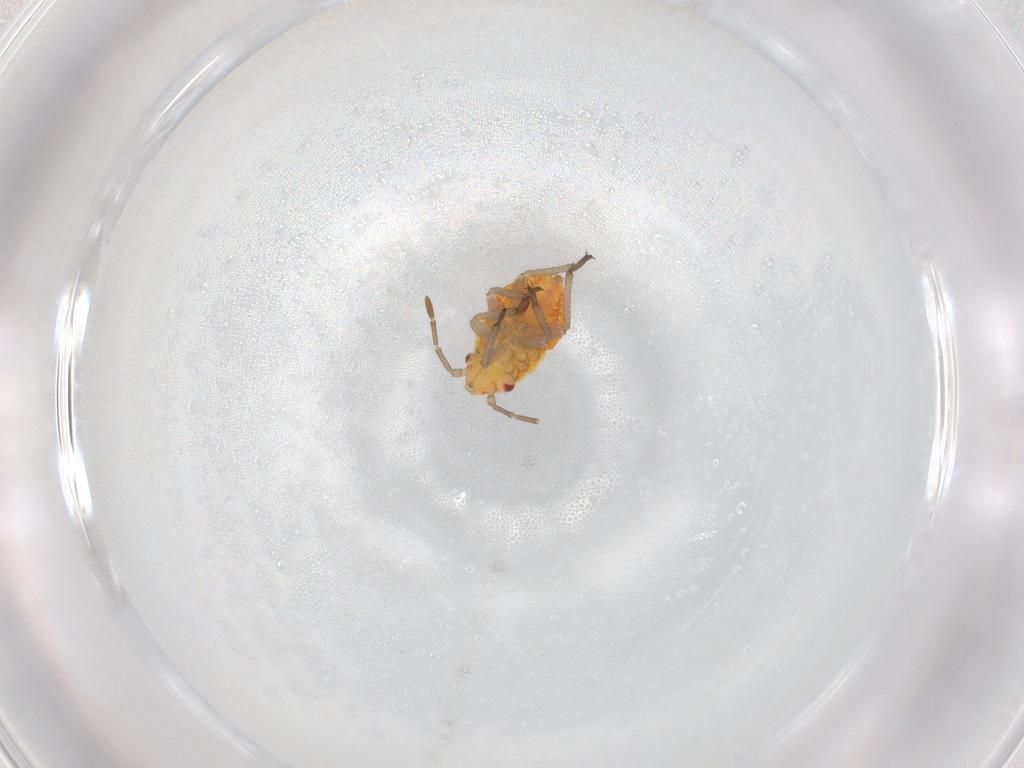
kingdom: Animalia
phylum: Arthropoda
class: Insecta
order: Hemiptera
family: Miridae
